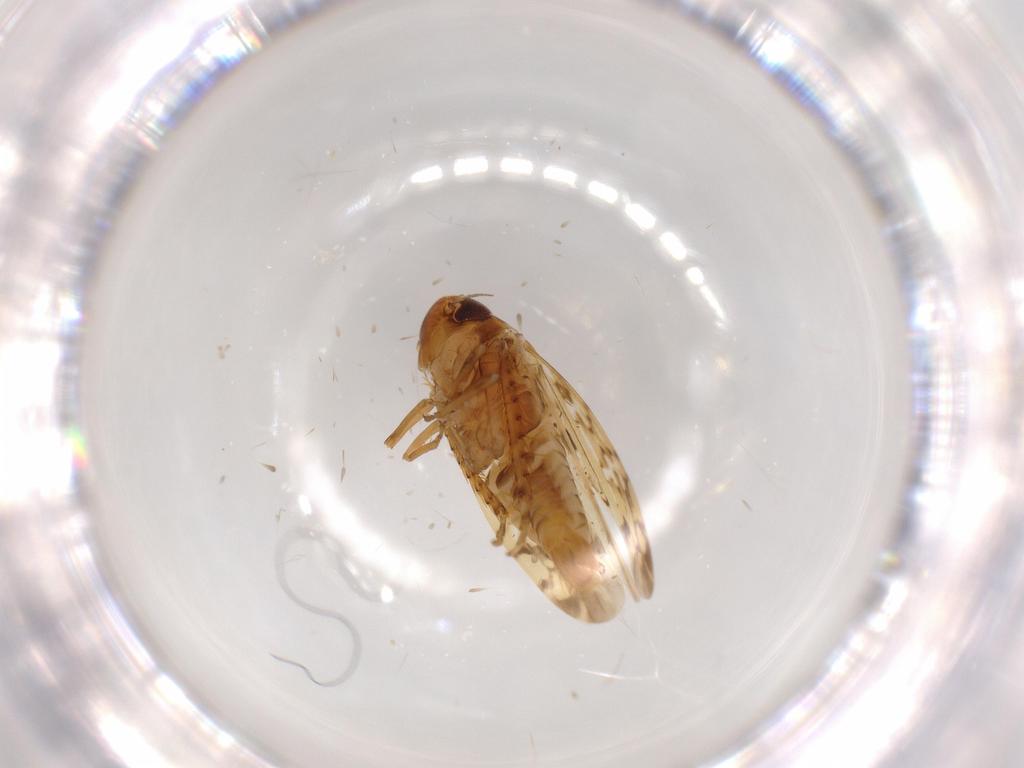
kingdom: Animalia
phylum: Arthropoda
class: Insecta
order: Hemiptera
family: Cicadellidae
